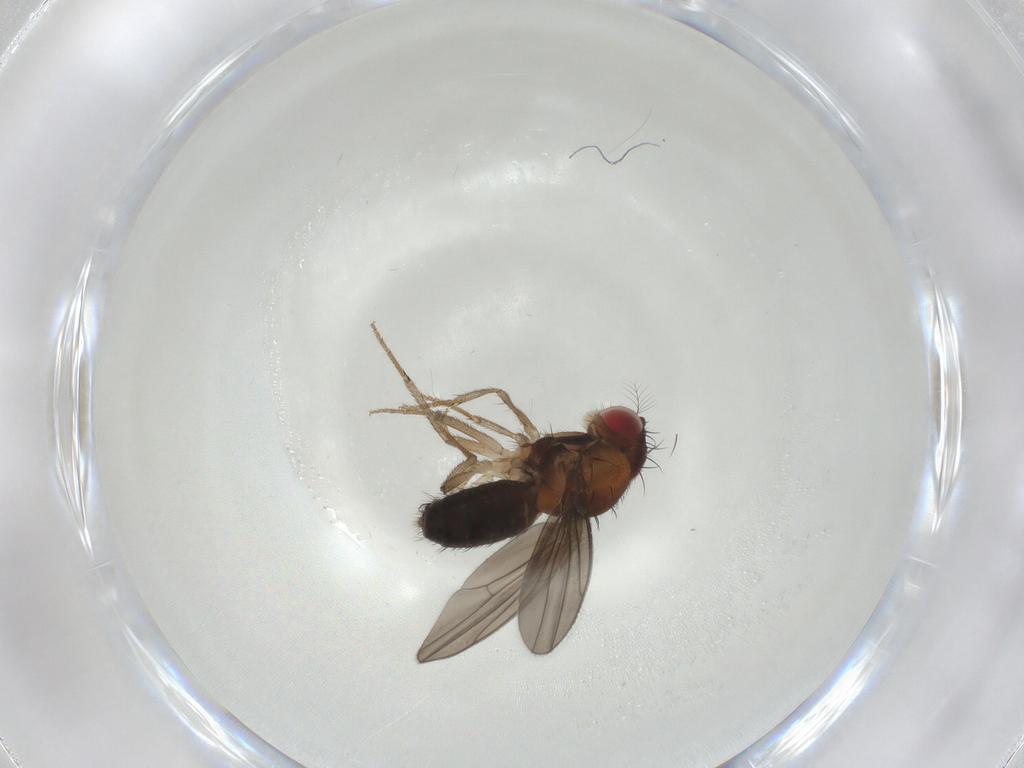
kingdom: Animalia
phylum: Arthropoda
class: Insecta
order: Diptera
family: Drosophilidae
